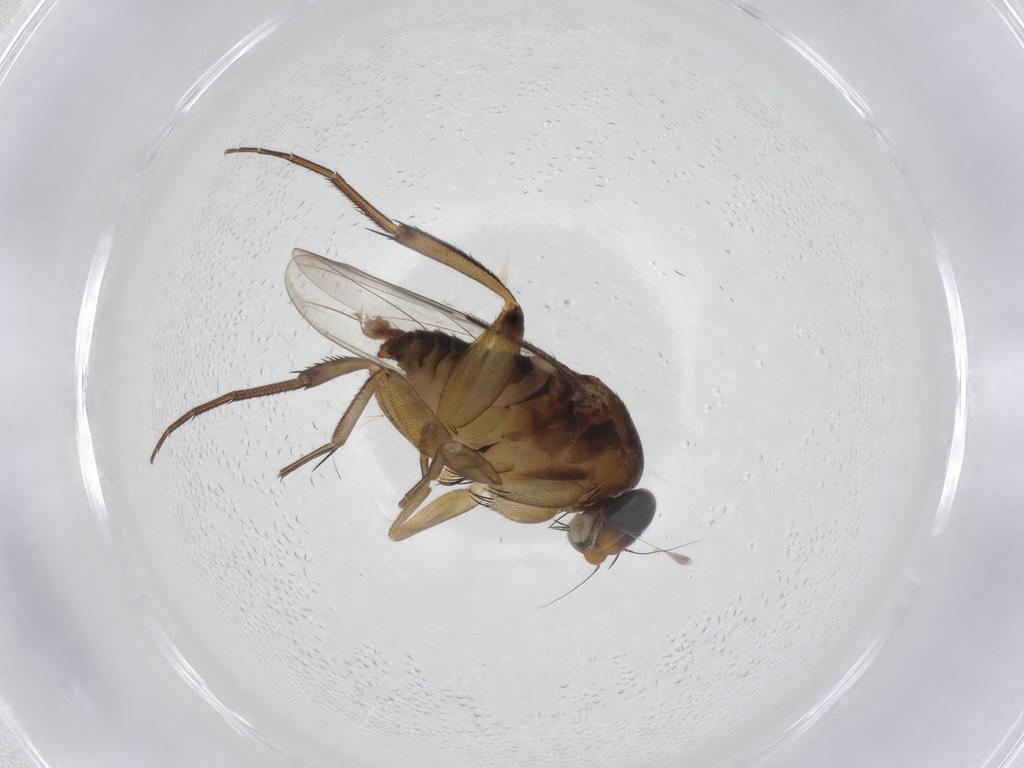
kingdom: Animalia
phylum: Arthropoda
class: Insecta
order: Diptera
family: Phoridae
